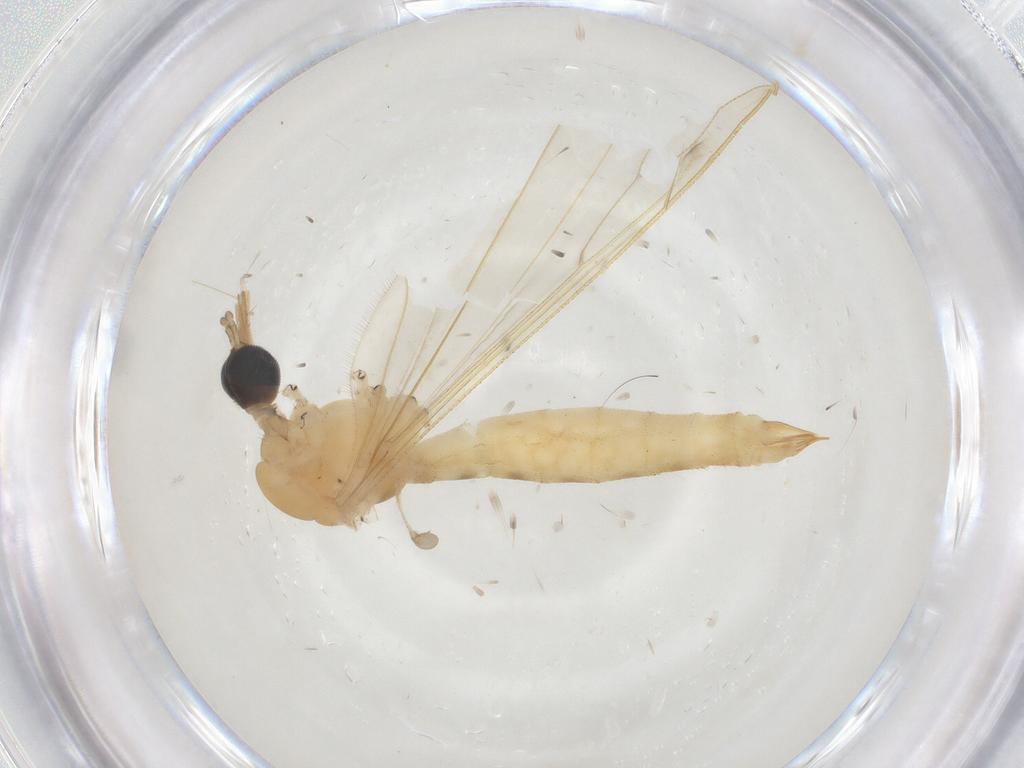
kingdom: Animalia
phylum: Arthropoda
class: Insecta
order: Diptera
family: Limoniidae
